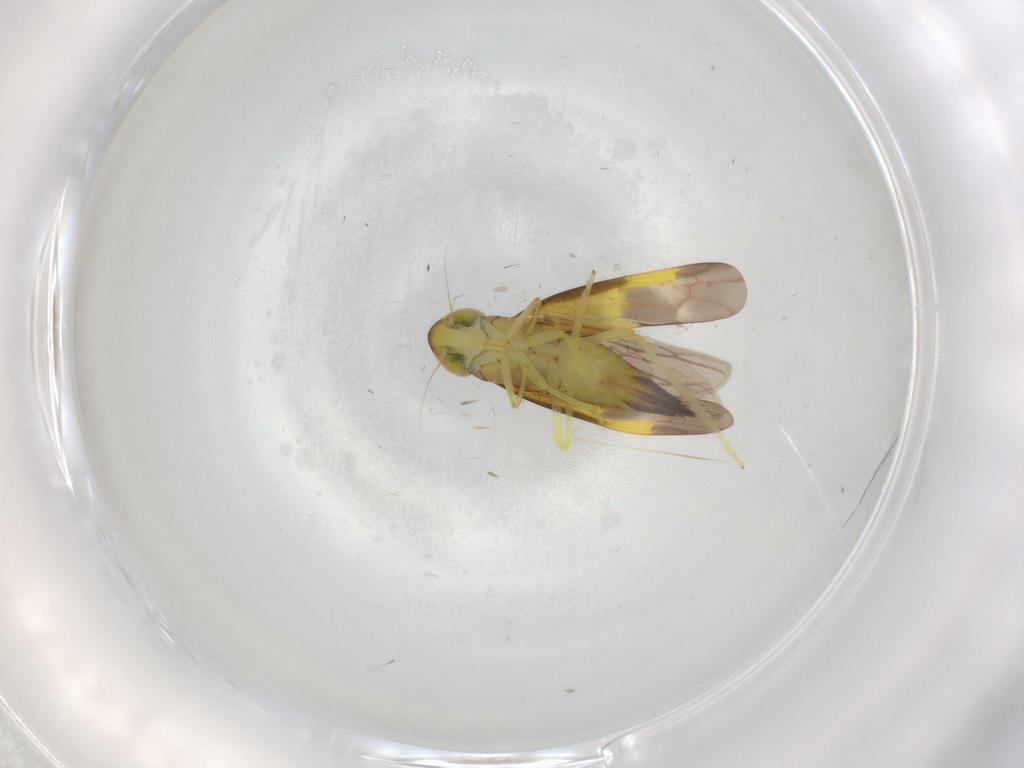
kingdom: Animalia
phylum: Arthropoda
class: Insecta
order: Hemiptera
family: Cicadellidae
